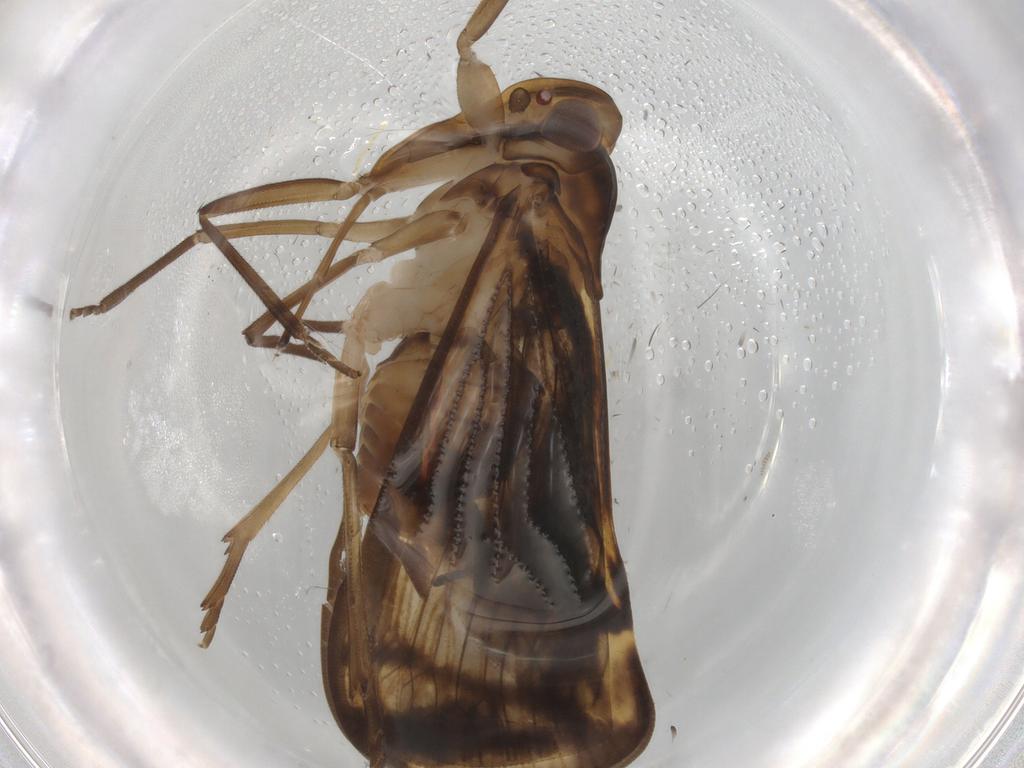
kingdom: Animalia
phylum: Arthropoda
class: Insecta
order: Hemiptera
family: Cixiidae
